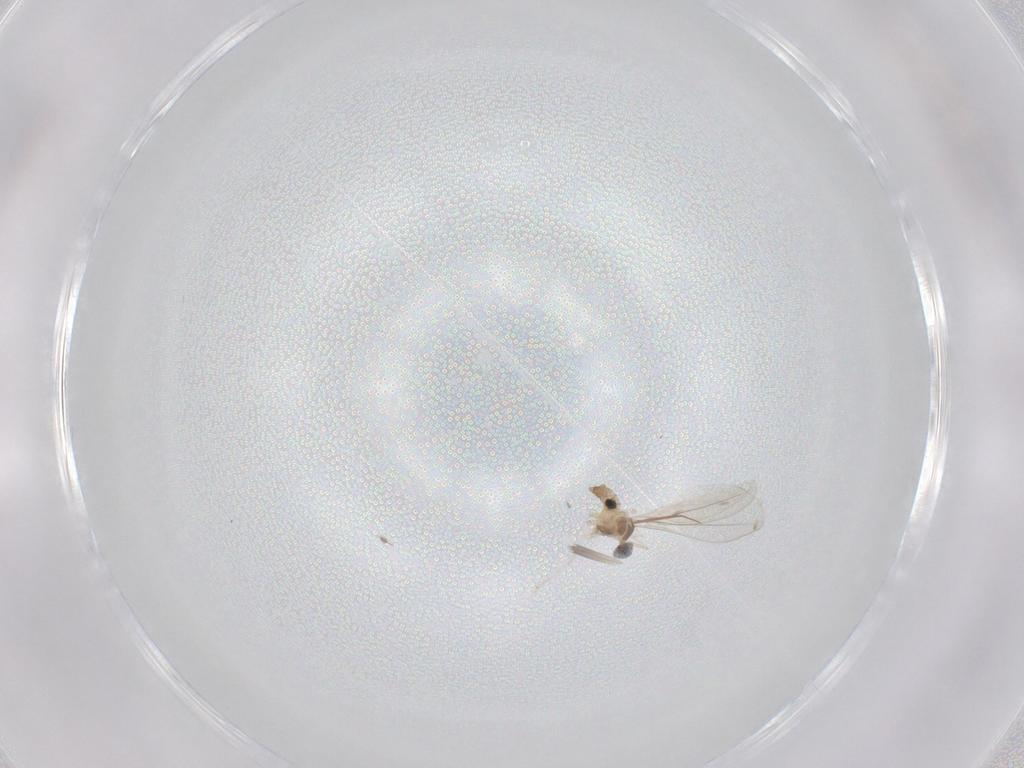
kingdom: Animalia
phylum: Arthropoda
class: Insecta
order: Diptera
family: Cecidomyiidae
